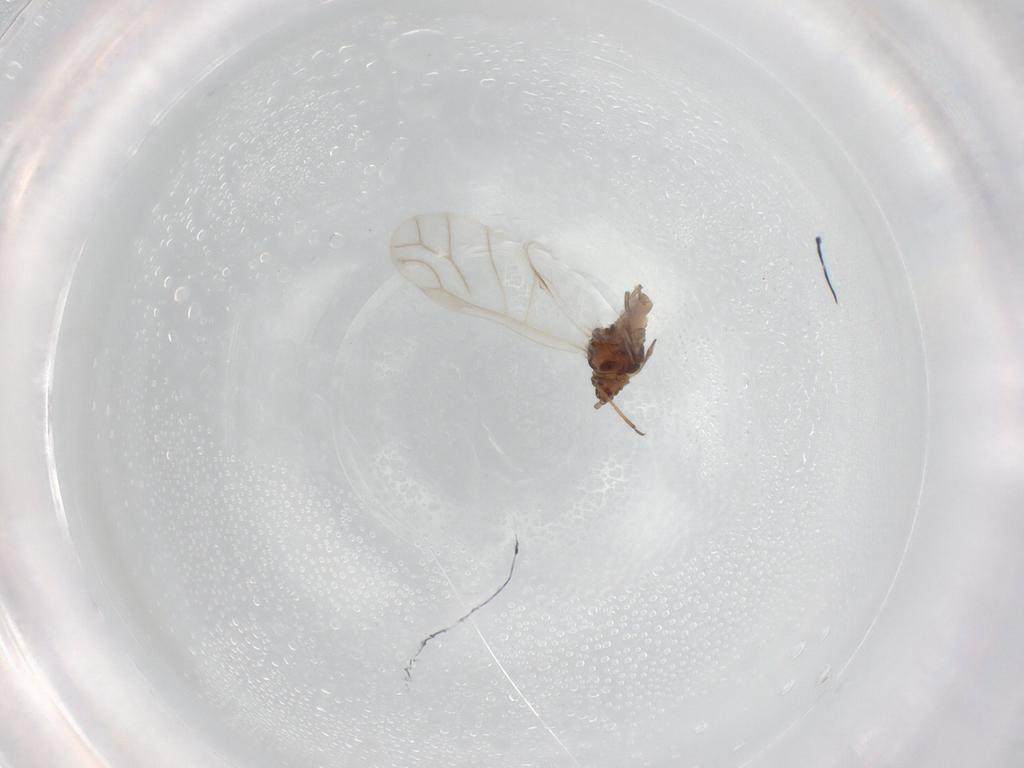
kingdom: Animalia
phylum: Arthropoda
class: Insecta
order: Hemiptera
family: Aphididae
